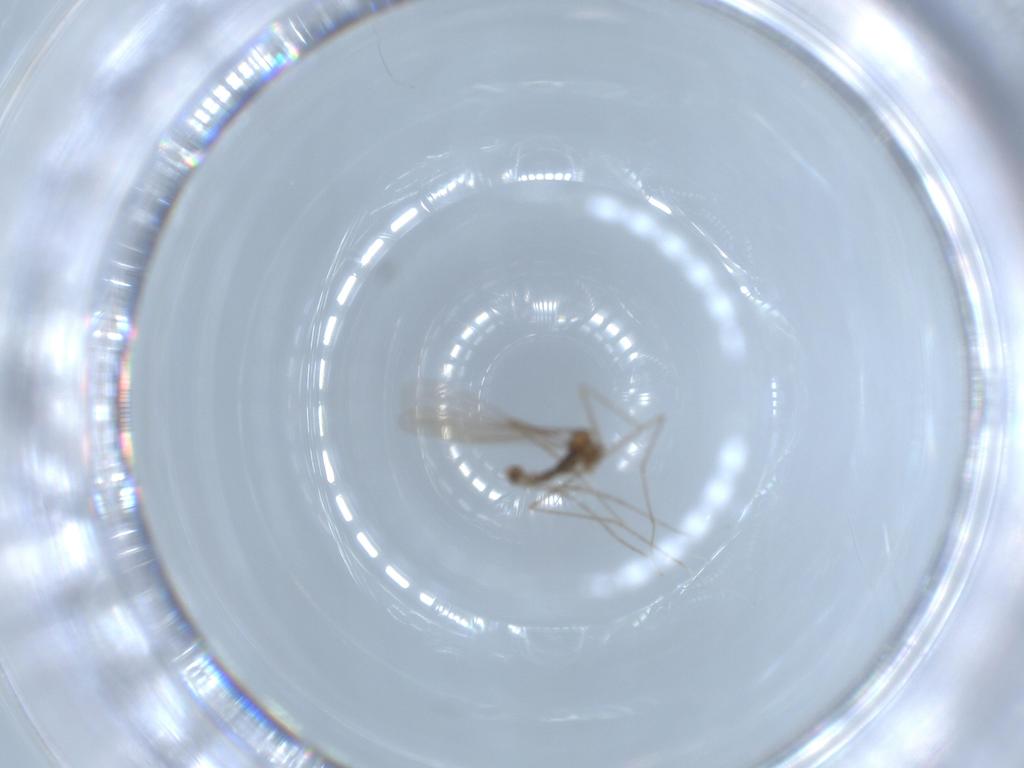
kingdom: Animalia
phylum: Arthropoda
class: Insecta
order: Diptera
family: Cecidomyiidae
